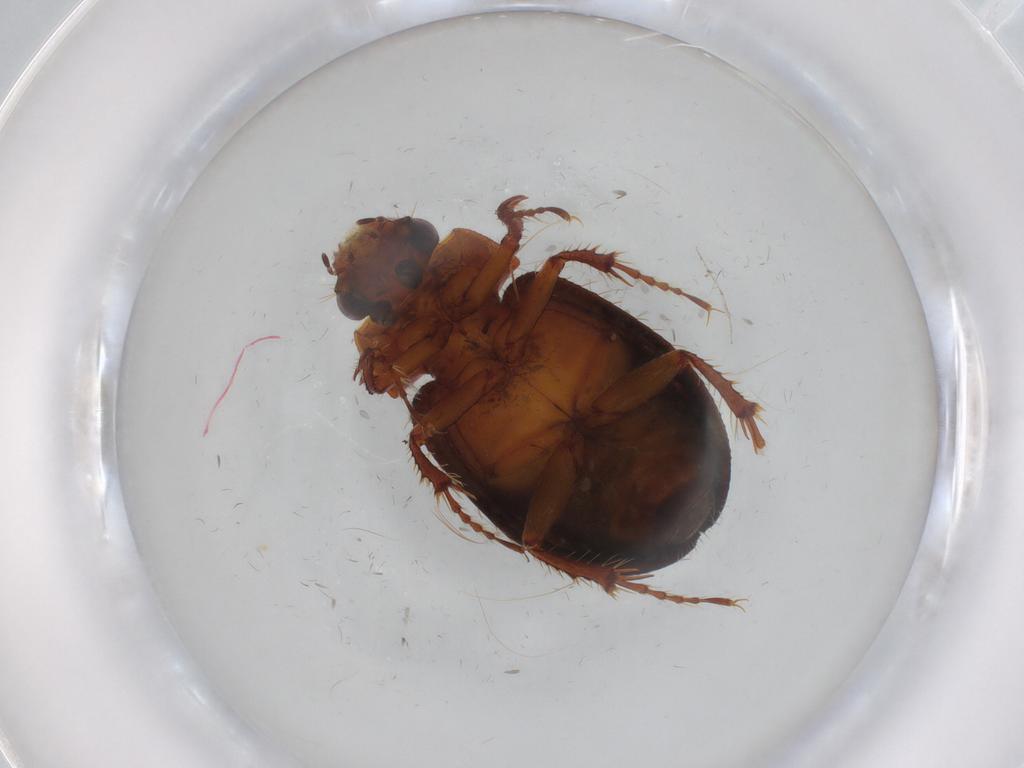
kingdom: Animalia
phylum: Arthropoda
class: Insecta
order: Coleoptera
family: Hybosoridae
